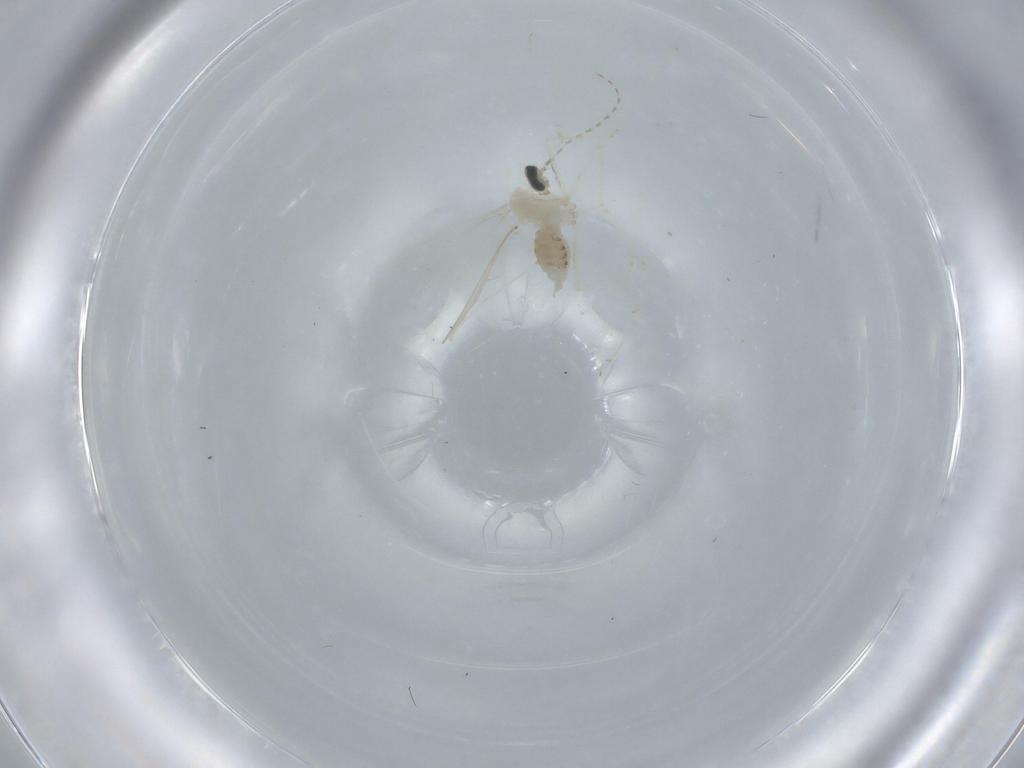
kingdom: Animalia
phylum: Arthropoda
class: Insecta
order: Diptera
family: Cecidomyiidae
